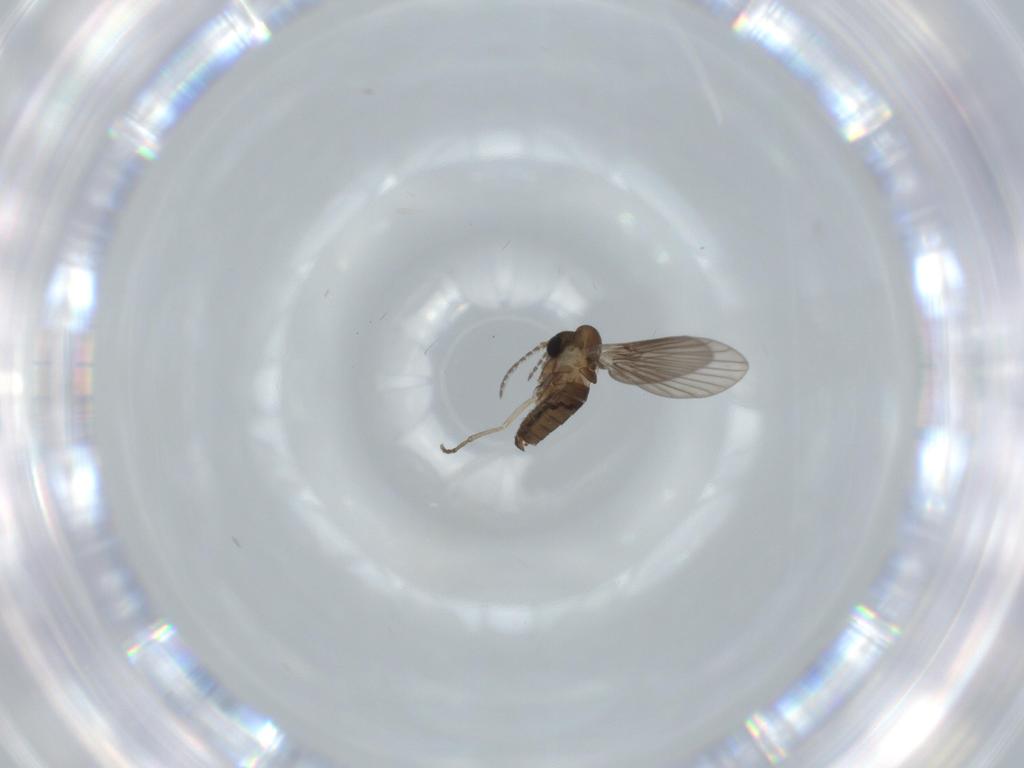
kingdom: Animalia
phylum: Arthropoda
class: Insecta
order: Diptera
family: Psychodidae
